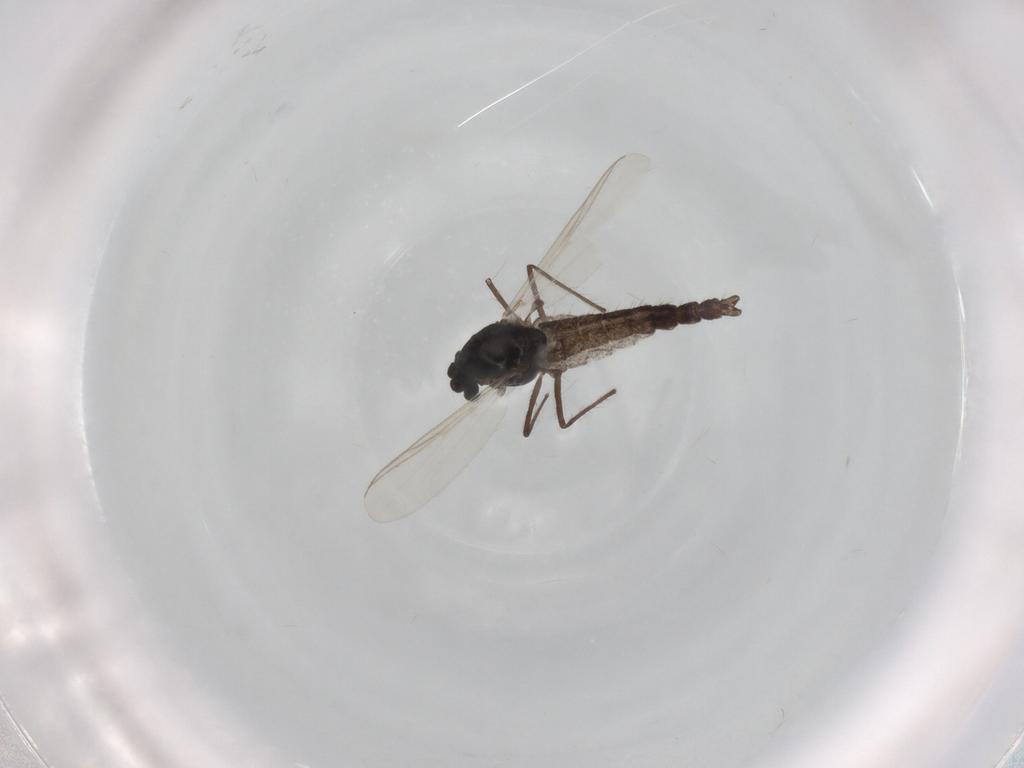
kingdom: Animalia
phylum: Arthropoda
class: Insecta
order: Diptera
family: Chironomidae
